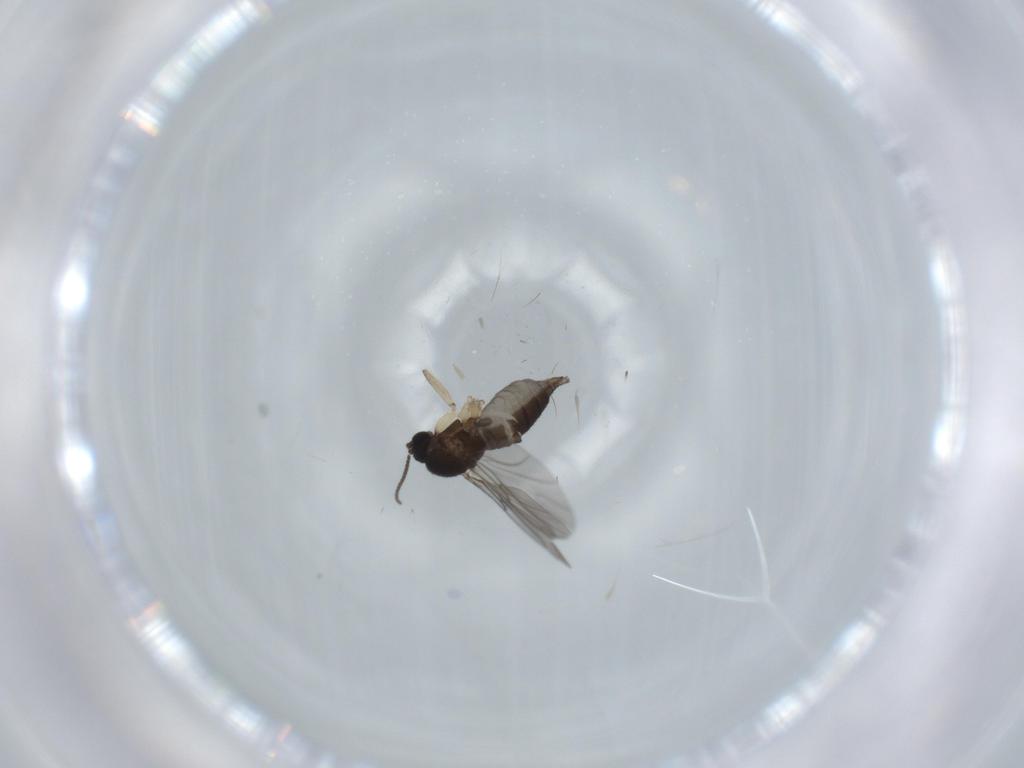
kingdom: Animalia
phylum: Arthropoda
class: Insecta
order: Diptera
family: Sciaridae
